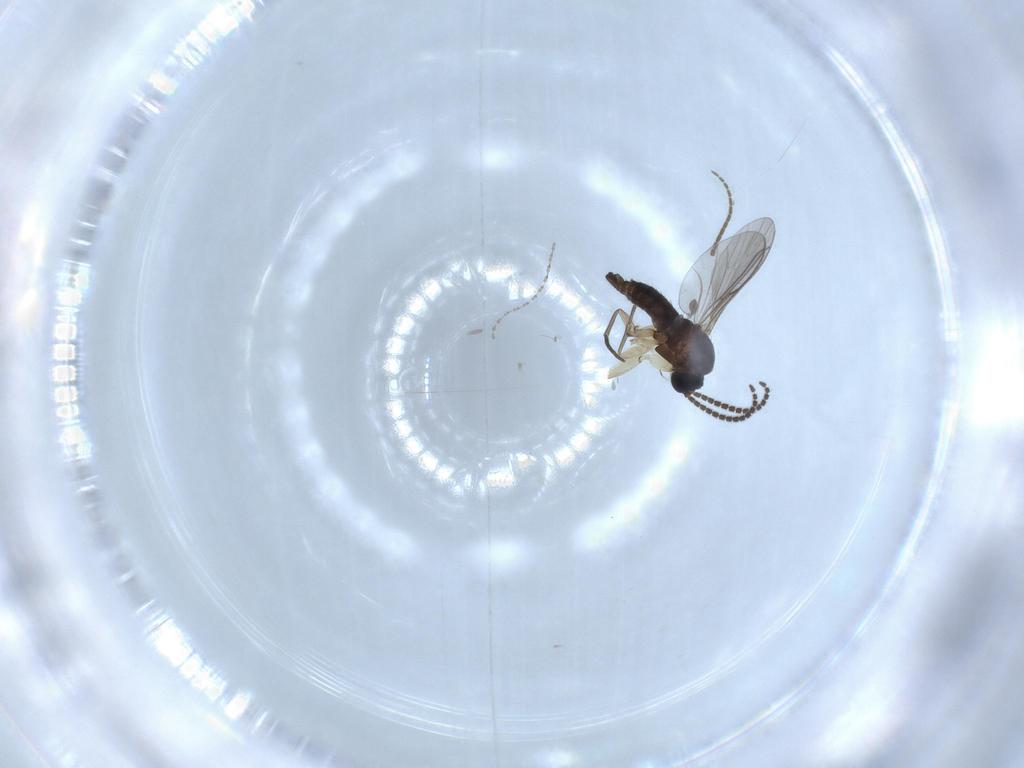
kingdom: Animalia
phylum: Arthropoda
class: Insecta
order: Diptera
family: Sciaridae
